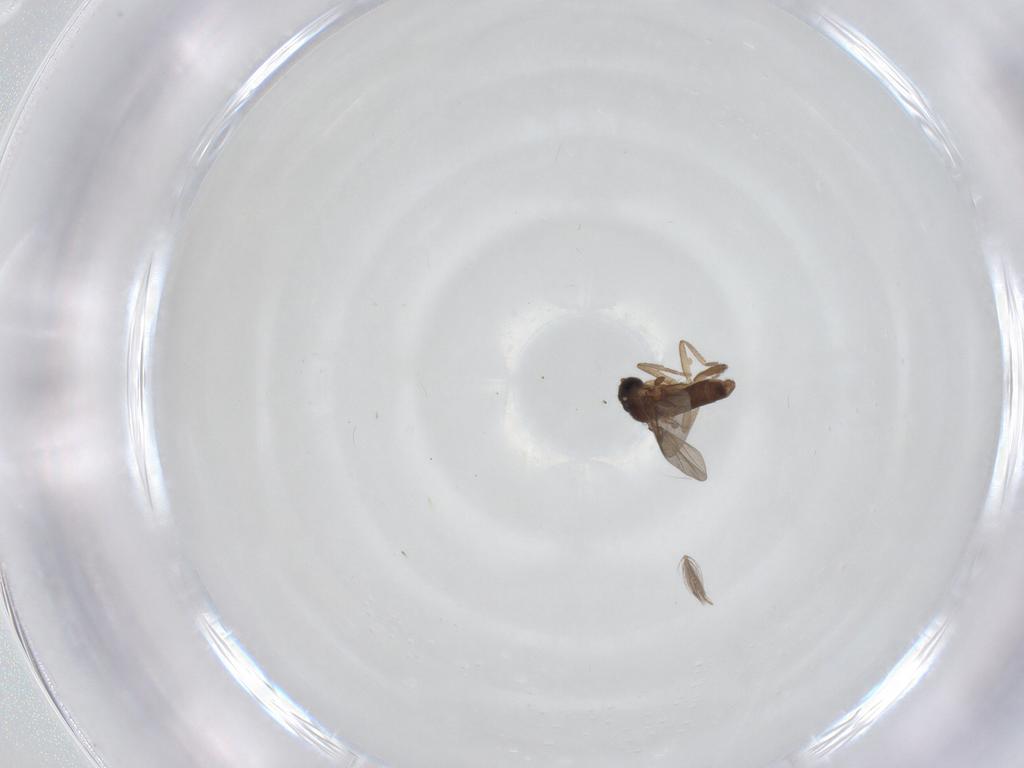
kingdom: Animalia
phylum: Arthropoda
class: Insecta
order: Diptera
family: Phoridae
